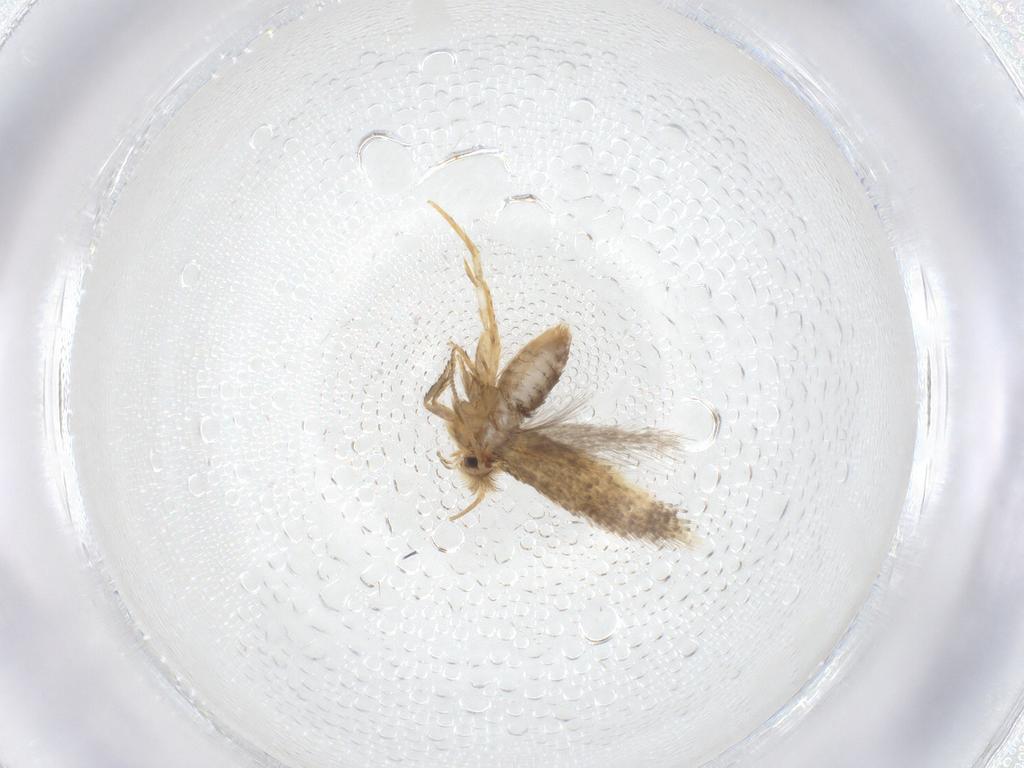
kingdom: Animalia
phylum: Arthropoda
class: Insecta
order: Lepidoptera
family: Nepticulidae
